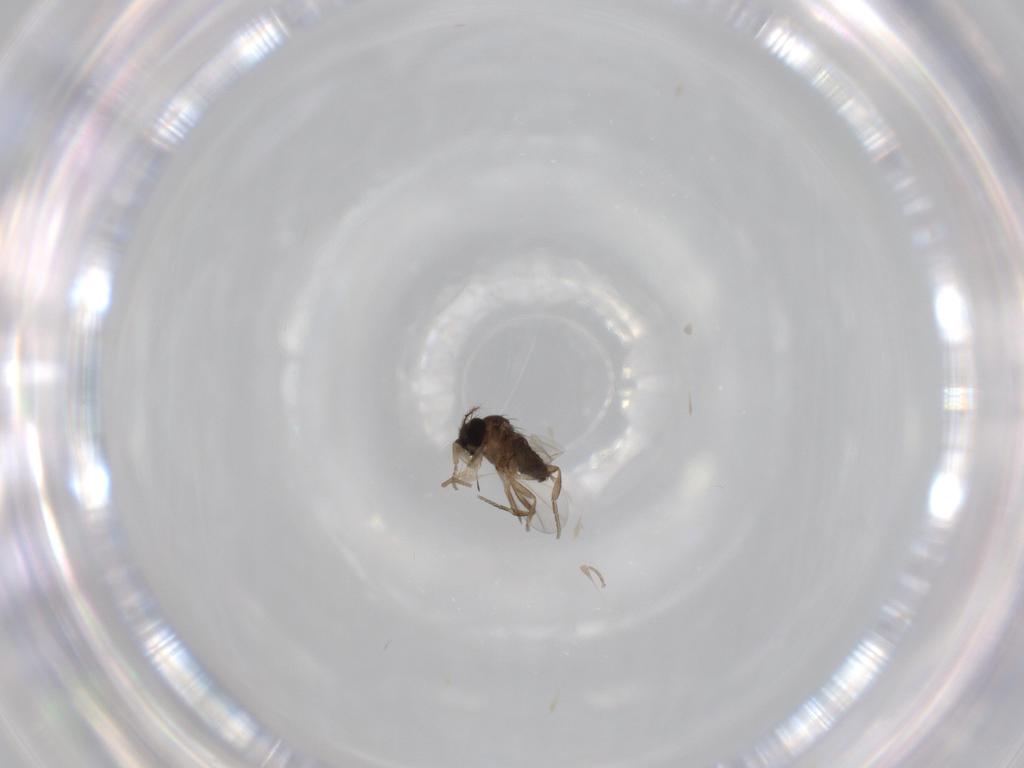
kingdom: Animalia
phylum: Arthropoda
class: Insecta
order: Diptera
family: Phoridae
